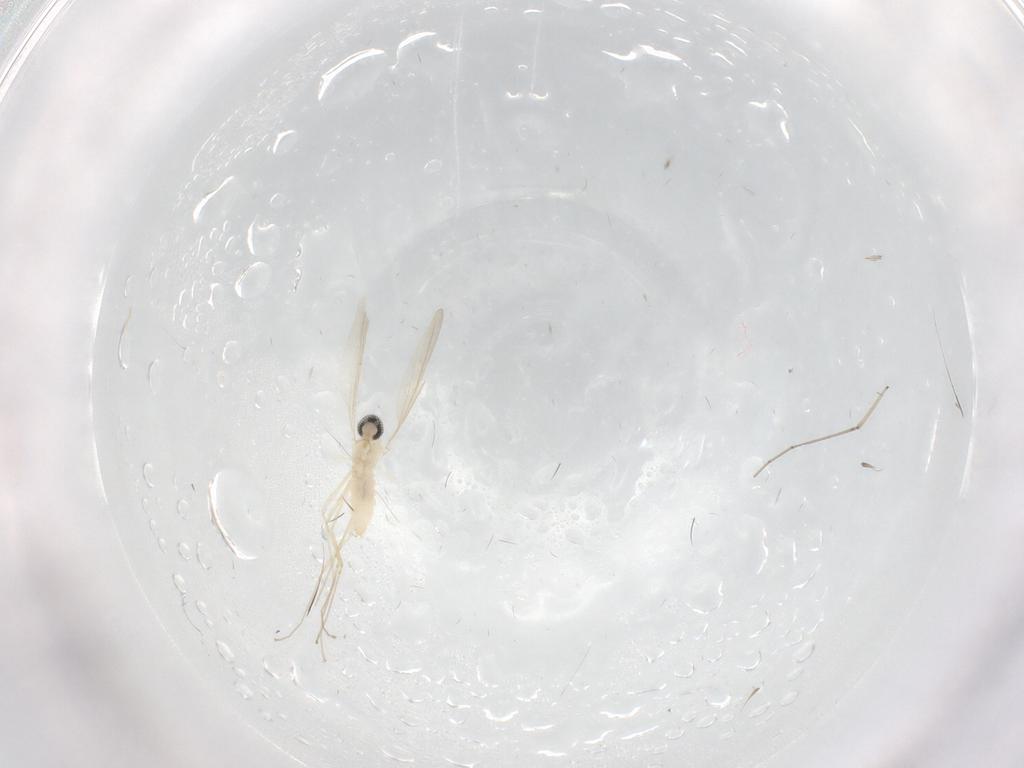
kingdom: Animalia
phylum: Arthropoda
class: Insecta
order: Diptera
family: Cecidomyiidae
